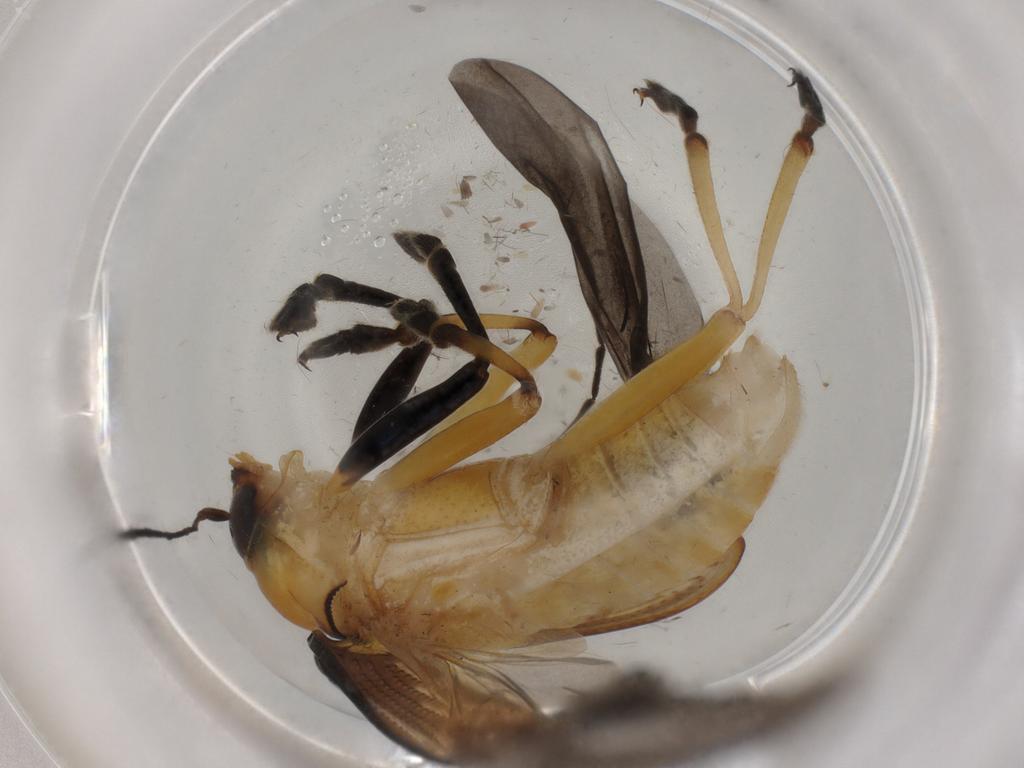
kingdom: Animalia
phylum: Arthropoda
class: Insecta
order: Coleoptera
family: Chrysomelidae
